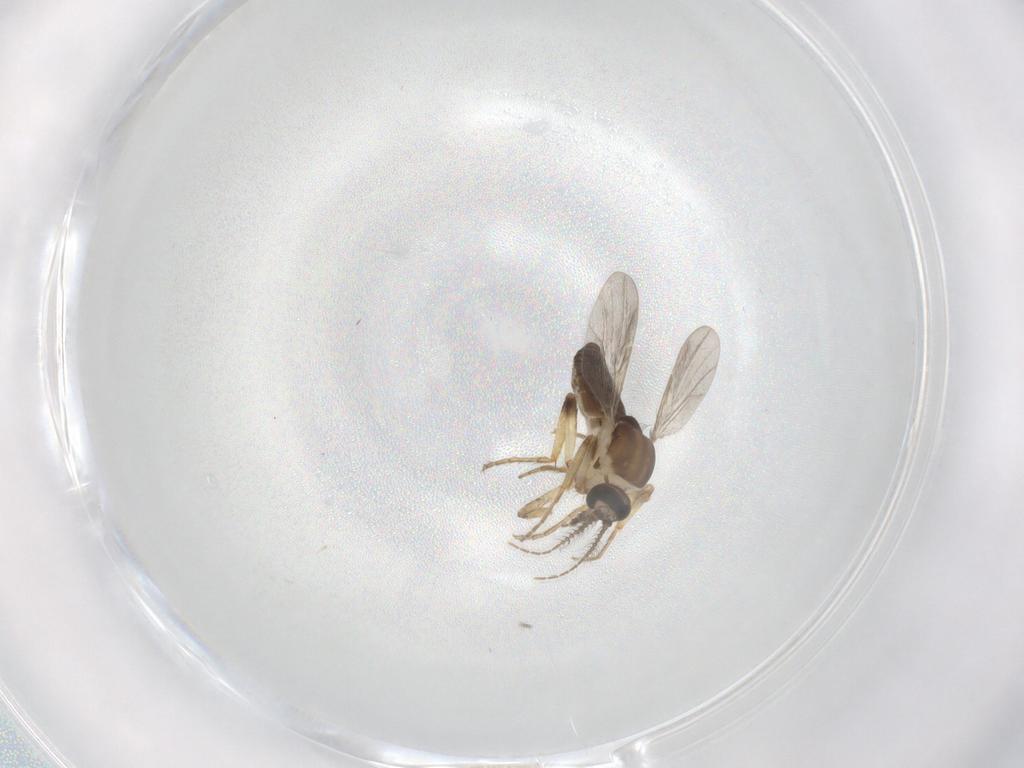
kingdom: Animalia
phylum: Arthropoda
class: Insecta
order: Diptera
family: Ceratopogonidae
